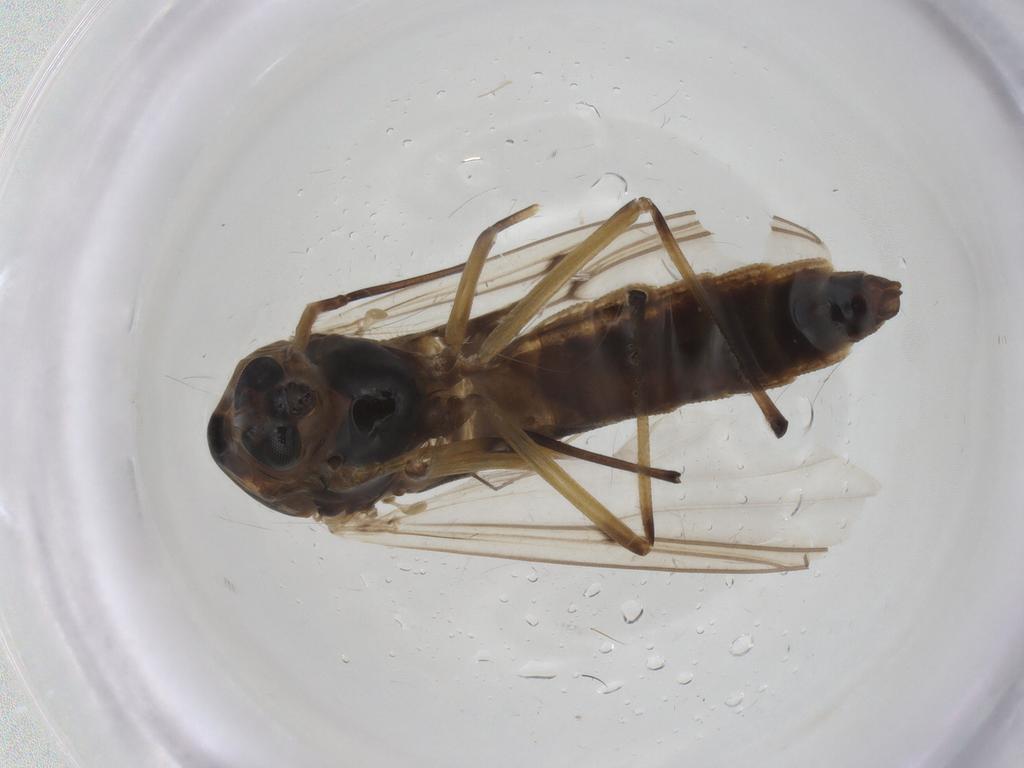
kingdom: Animalia
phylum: Arthropoda
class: Insecta
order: Diptera
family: Chironomidae
